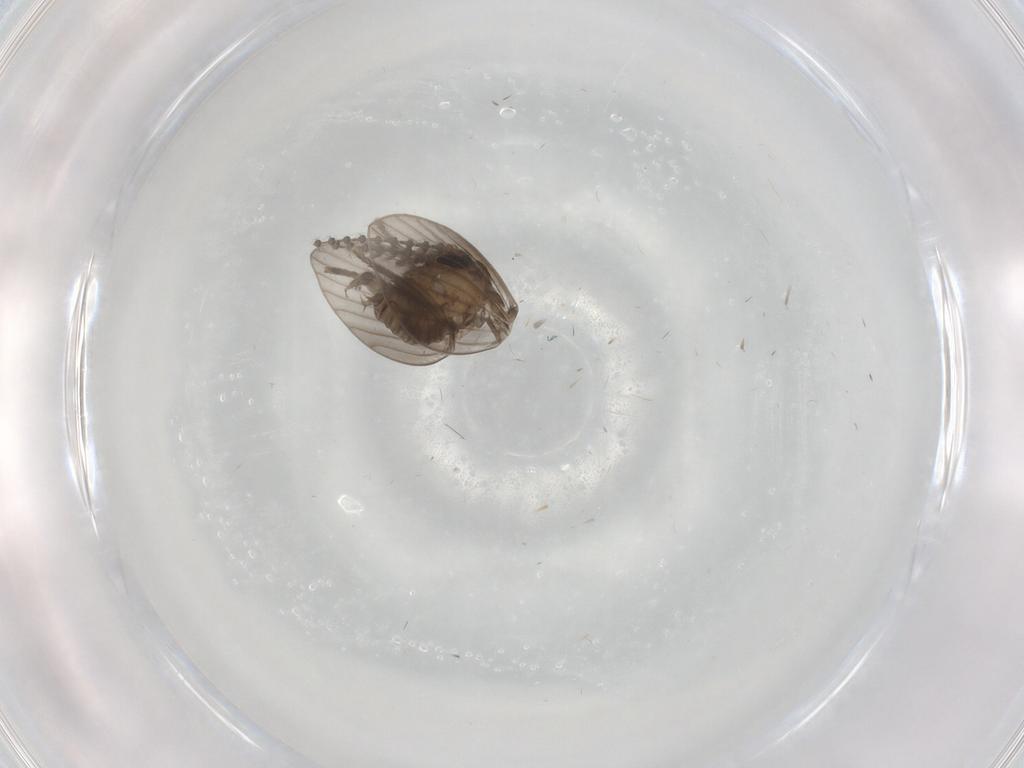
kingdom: Animalia
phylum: Arthropoda
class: Insecta
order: Diptera
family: Psychodidae
